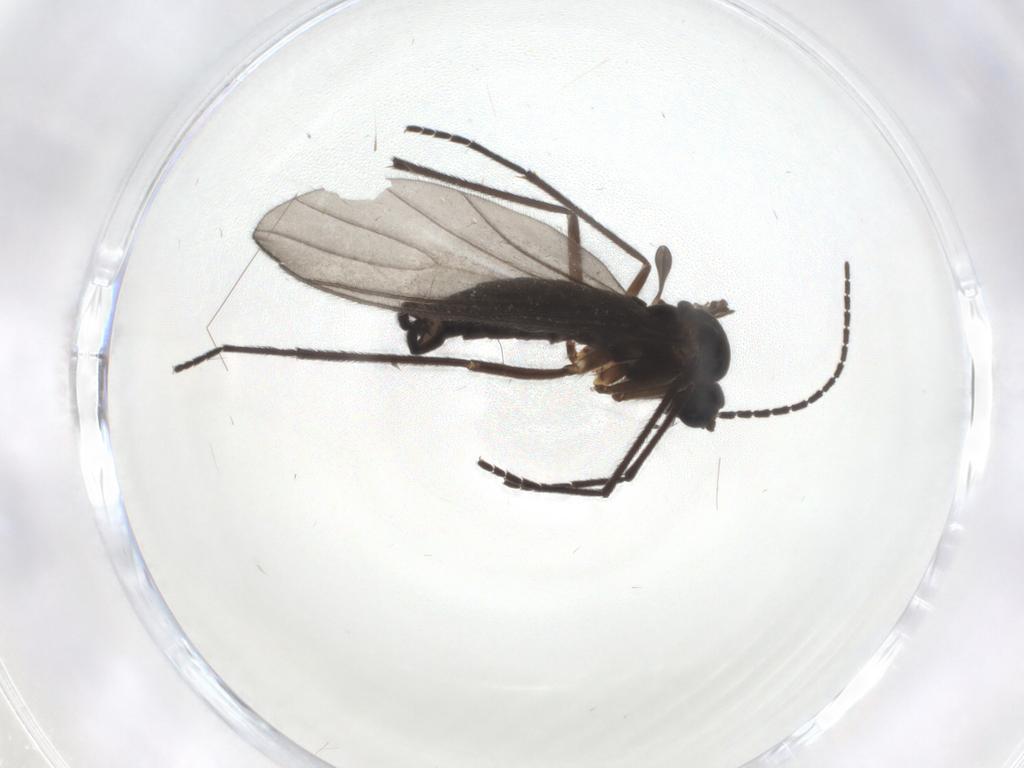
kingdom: Animalia
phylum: Arthropoda
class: Insecta
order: Diptera
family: Sciaridae
